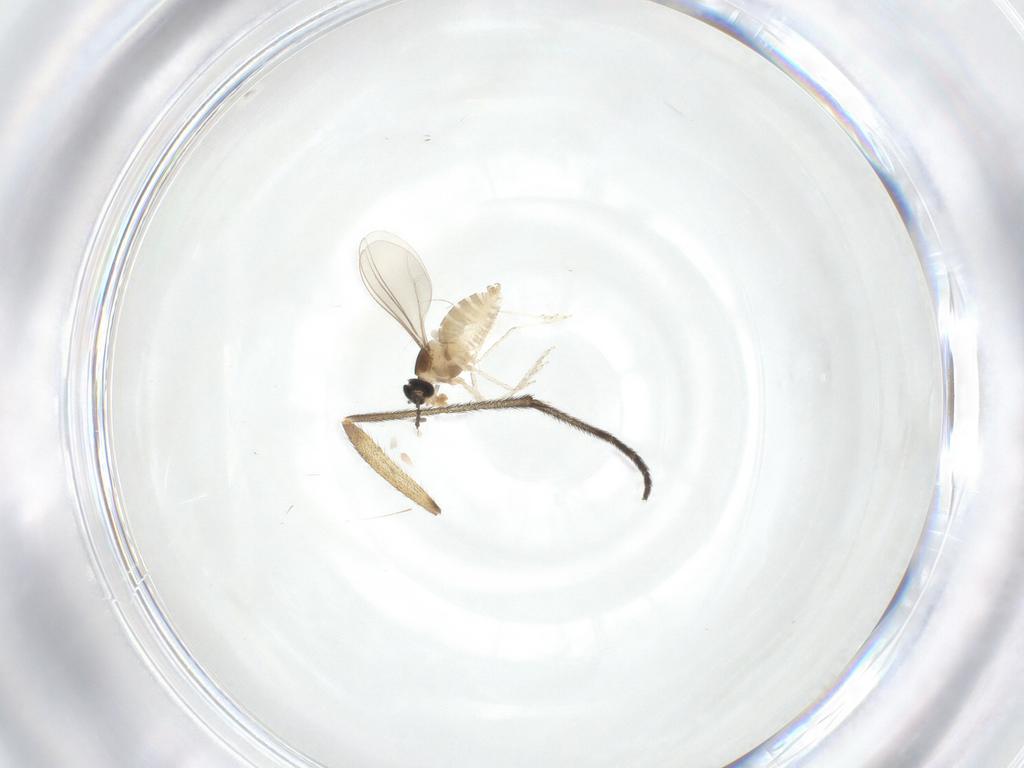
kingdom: Animalia
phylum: Arthropoda
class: Insecta
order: Diptera
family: Cecidomyiidae
